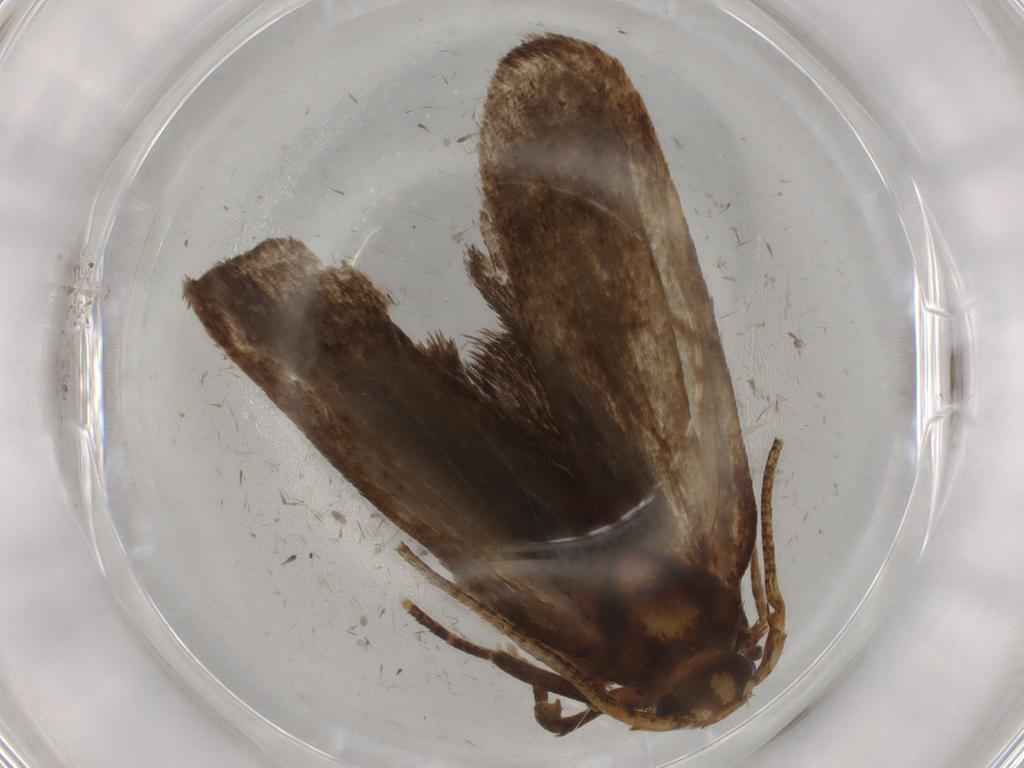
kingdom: Animalia
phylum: Arthropoda
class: Insecta
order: Lepidoptera
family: Autostichidae
